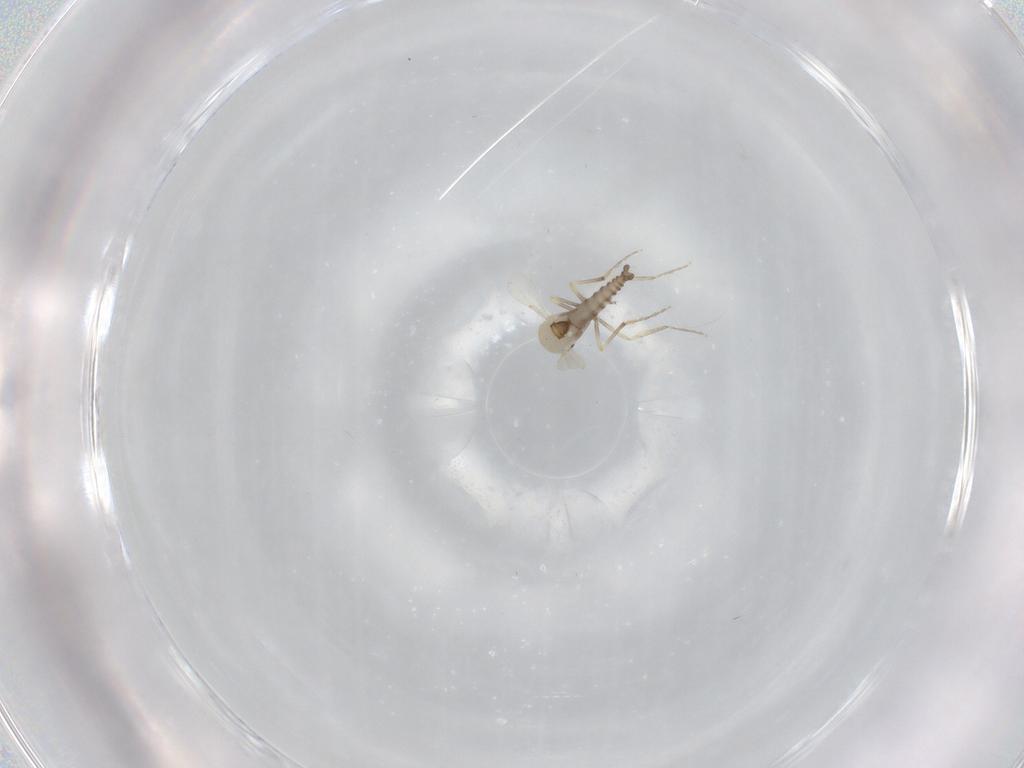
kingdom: Animalia
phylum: Arthropoda
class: Insecta
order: Diptera
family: Ceratopogonidae
